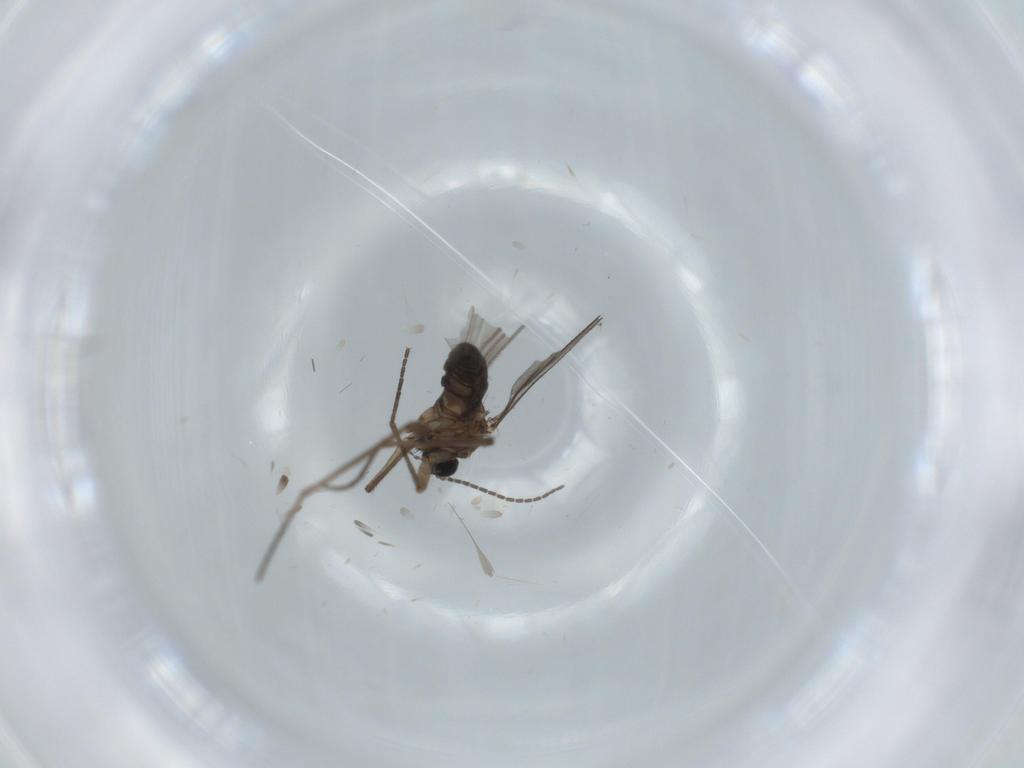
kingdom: Animalia
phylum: Arthropoda
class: Insecta
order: Diptera
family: Sciaridae
